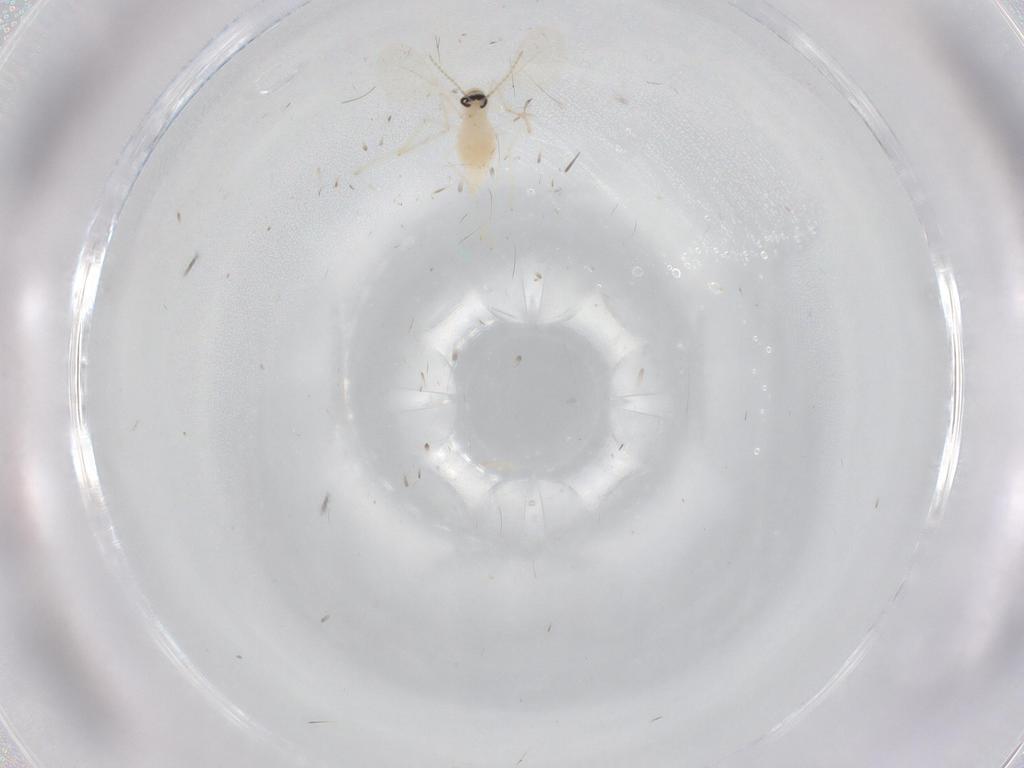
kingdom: Animalia
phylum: Arthropoda
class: Insecta
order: Diptera
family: Cecidomyiidae
